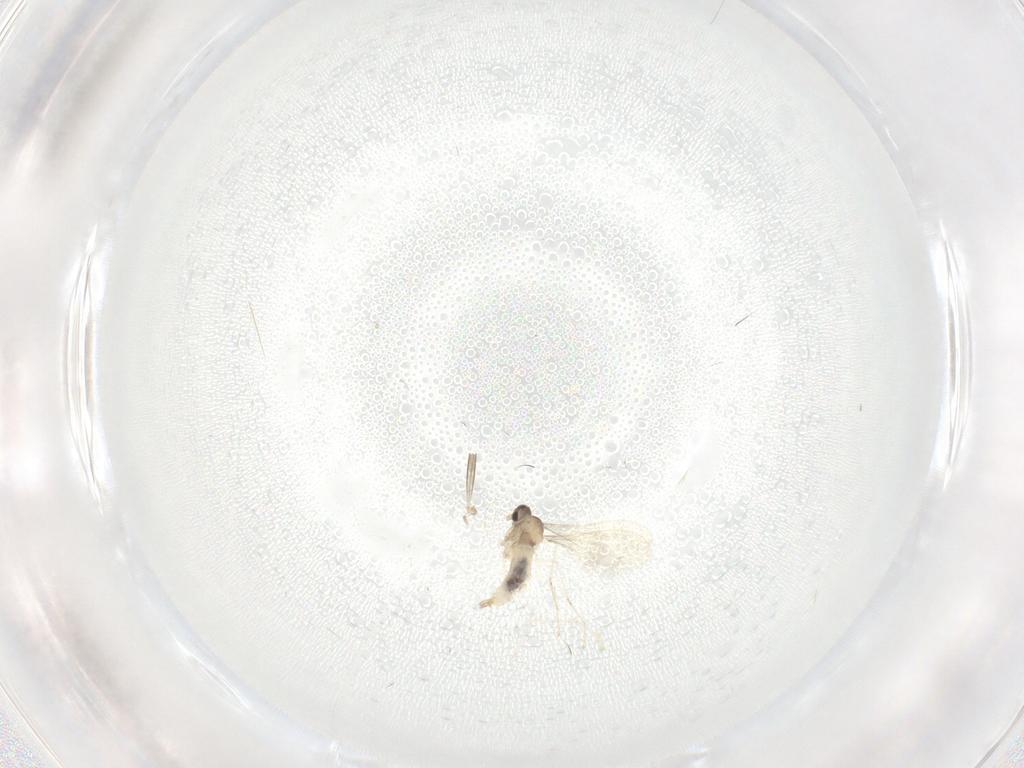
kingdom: Animalia
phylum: Arthropoda
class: Insecta
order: Diptera
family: Cecidomyiidae
